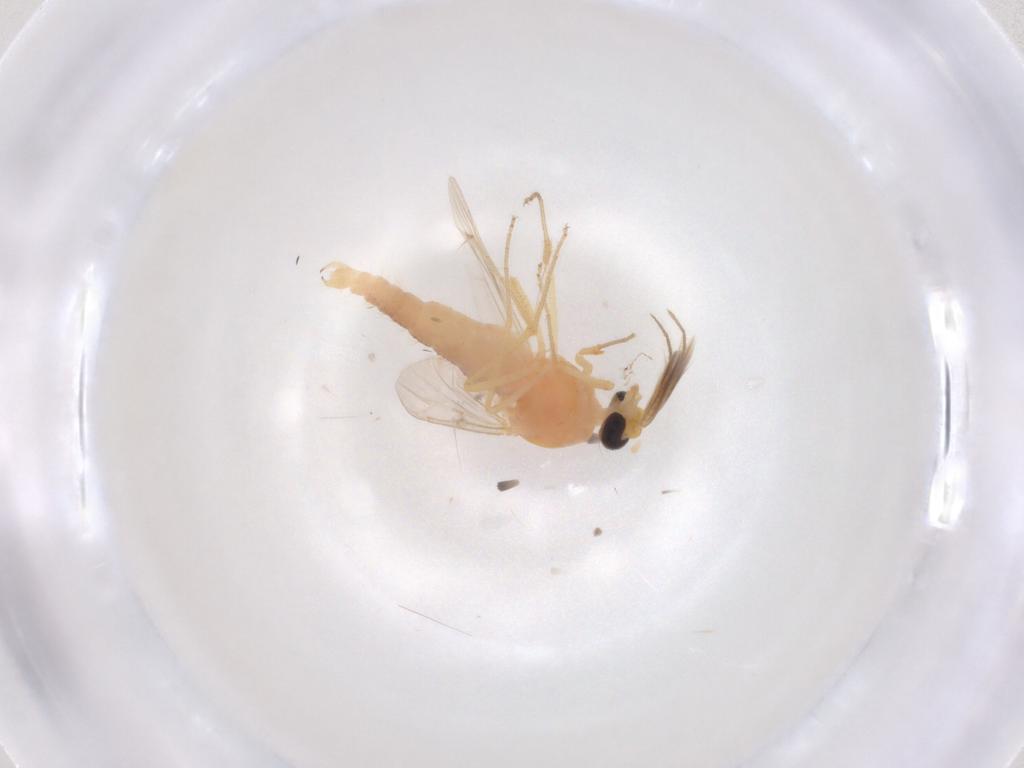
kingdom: Animalia
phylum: Arthropoda
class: Insecta
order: Diptera
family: Ceratopogonidae
